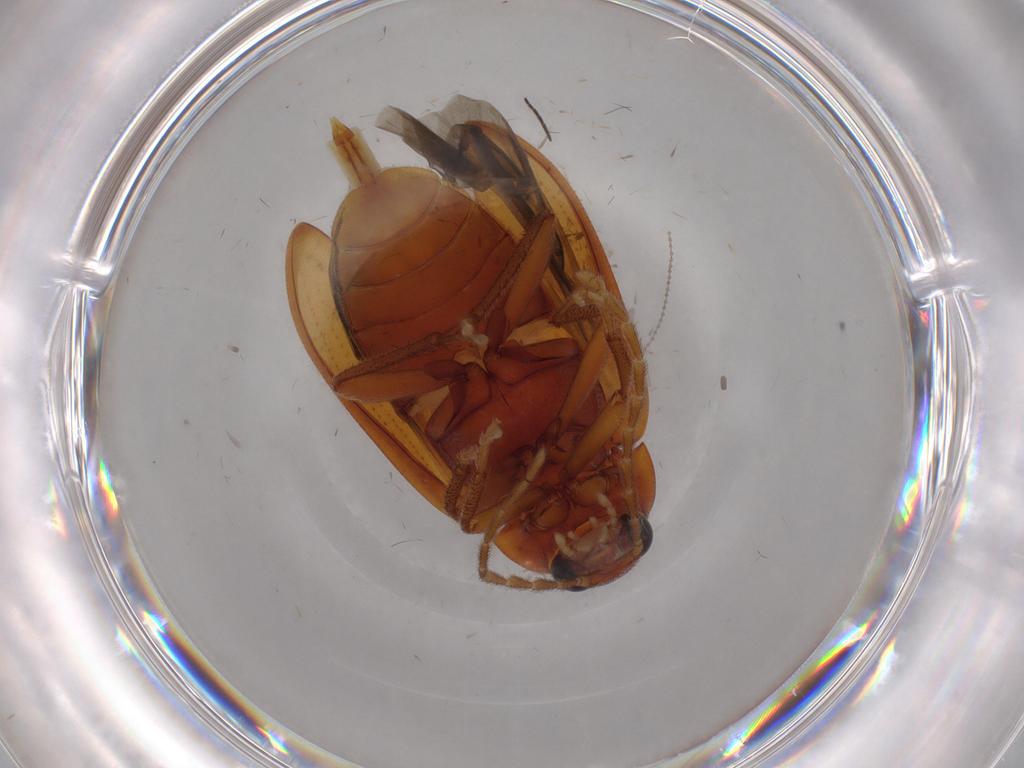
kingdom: Animalia
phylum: Arthropoda
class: Insecta
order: Coleoptera
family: Ptilodactylidae
